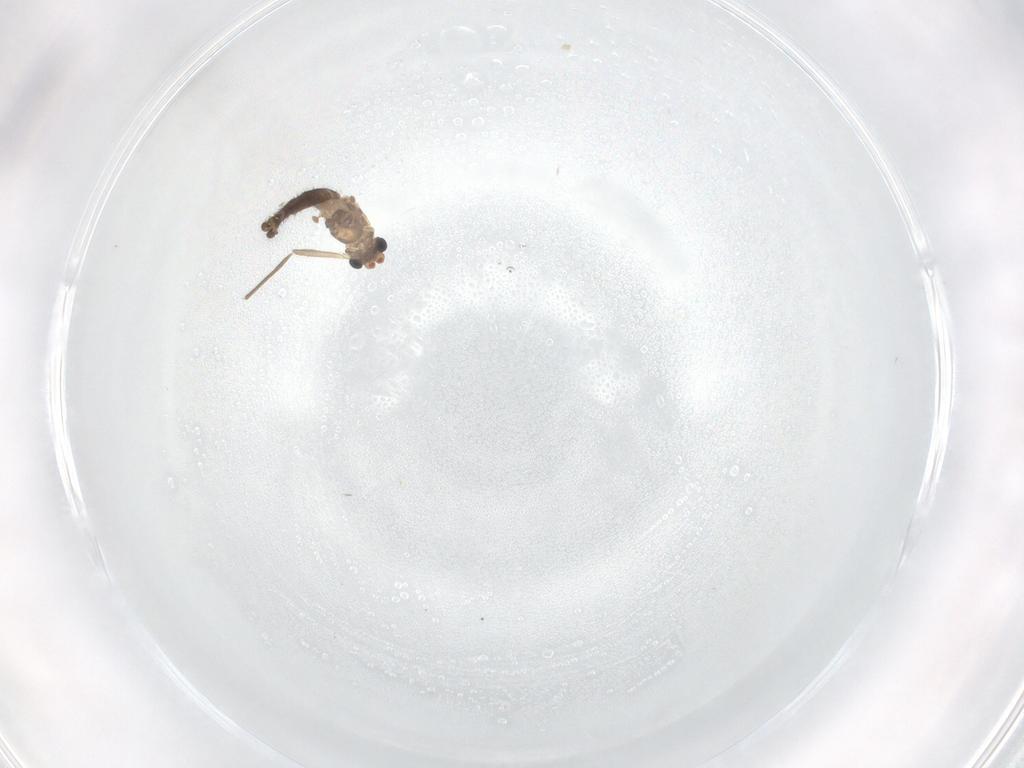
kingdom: Animalia
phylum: Arthropoda
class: Insecta
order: Diptera
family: Chironomidae
